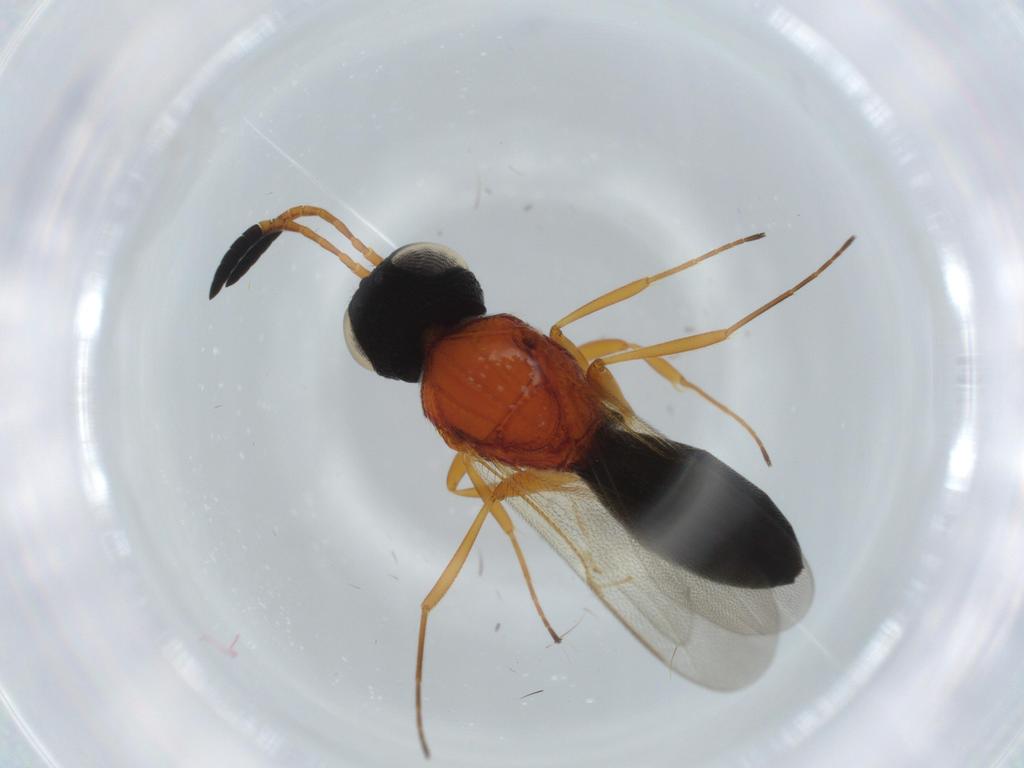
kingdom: Animalia
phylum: Arthropoda
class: Insecta
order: Hymenoptera
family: Scelionidae
